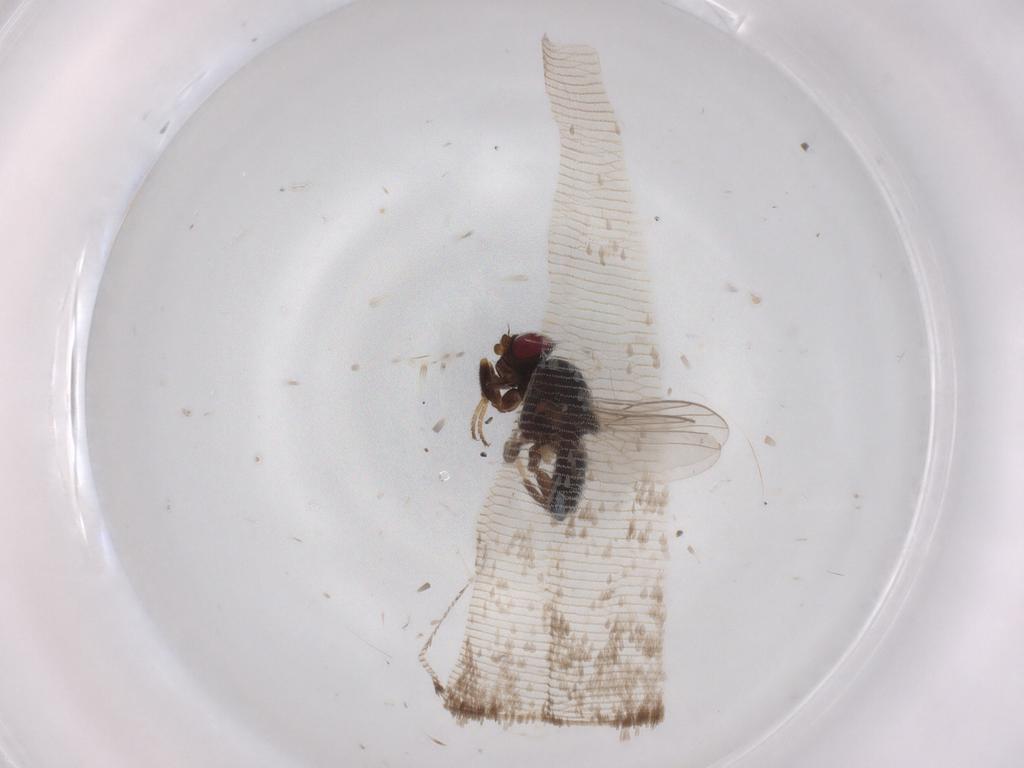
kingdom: Animalia
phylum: Arthropoda
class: Insecta
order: Diptera
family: Chloropidae
